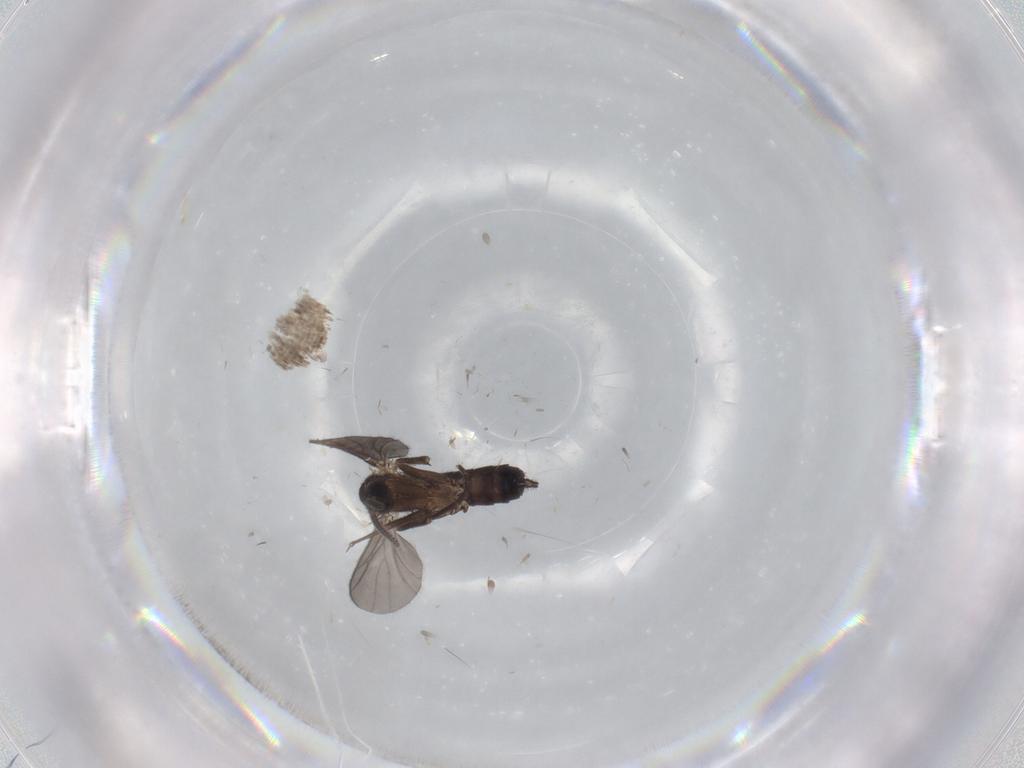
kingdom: Animalia
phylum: Arthropoda
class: Insecta
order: Diptera
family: Mycetophilidae
